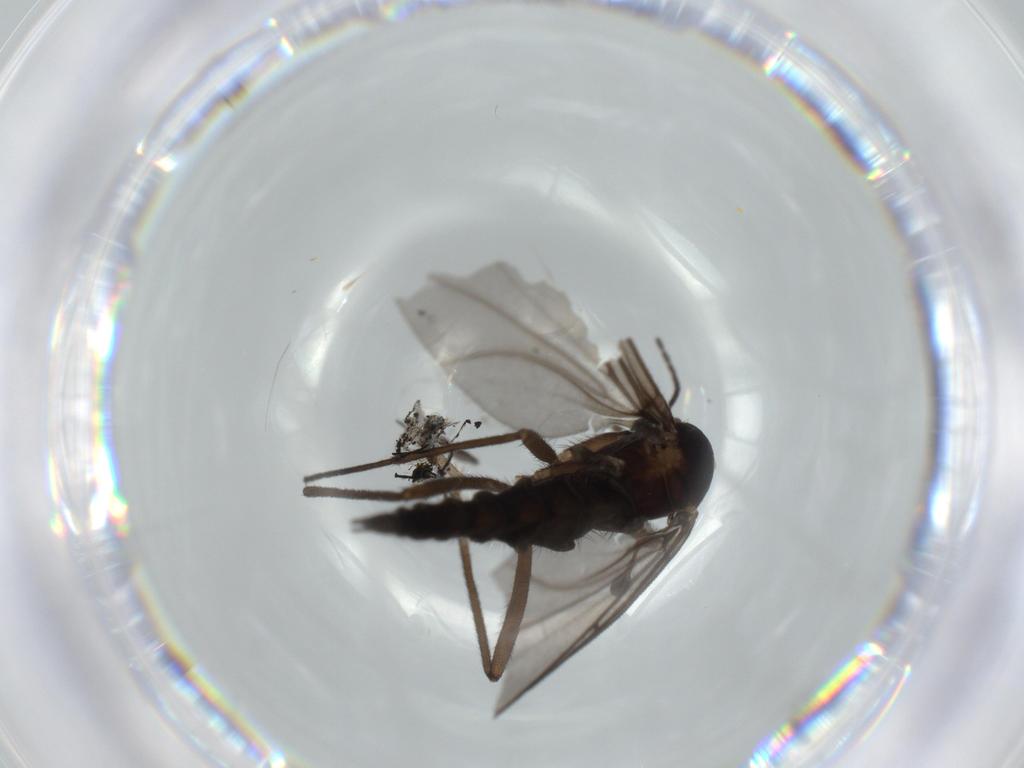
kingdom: Animalia
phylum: Arthropoda
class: Insecta
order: Diptera
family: Sciaridae
